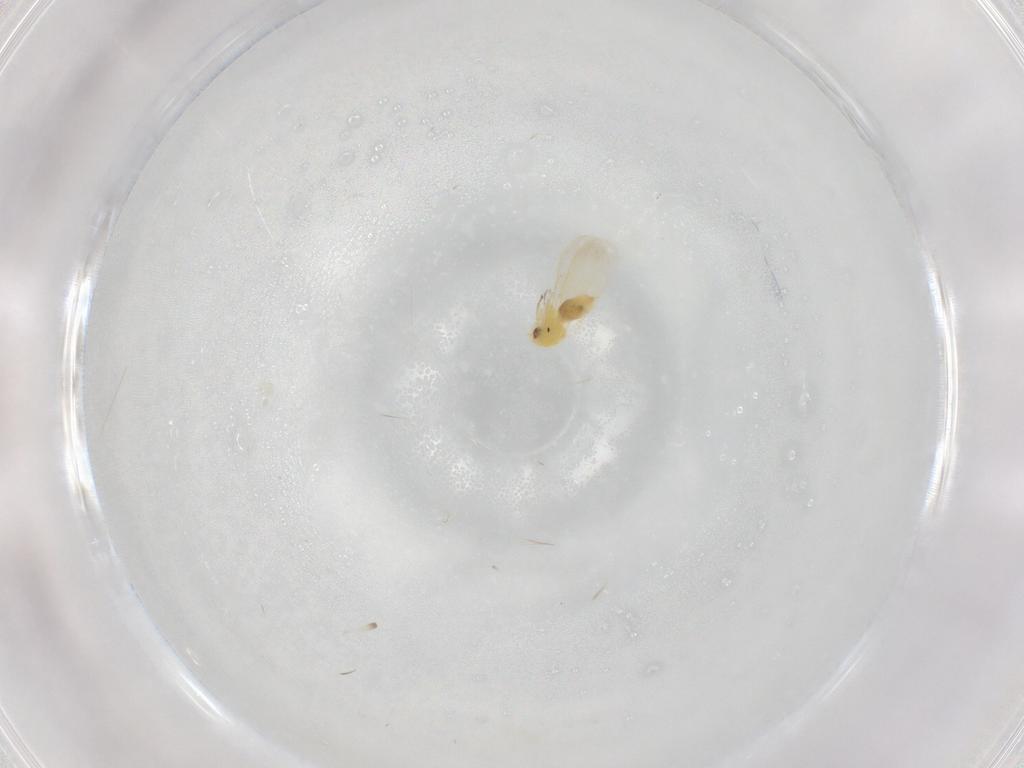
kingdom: Animalia
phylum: Arthropoda
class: Insecta
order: Hemiptera
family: Aleyrodidae
